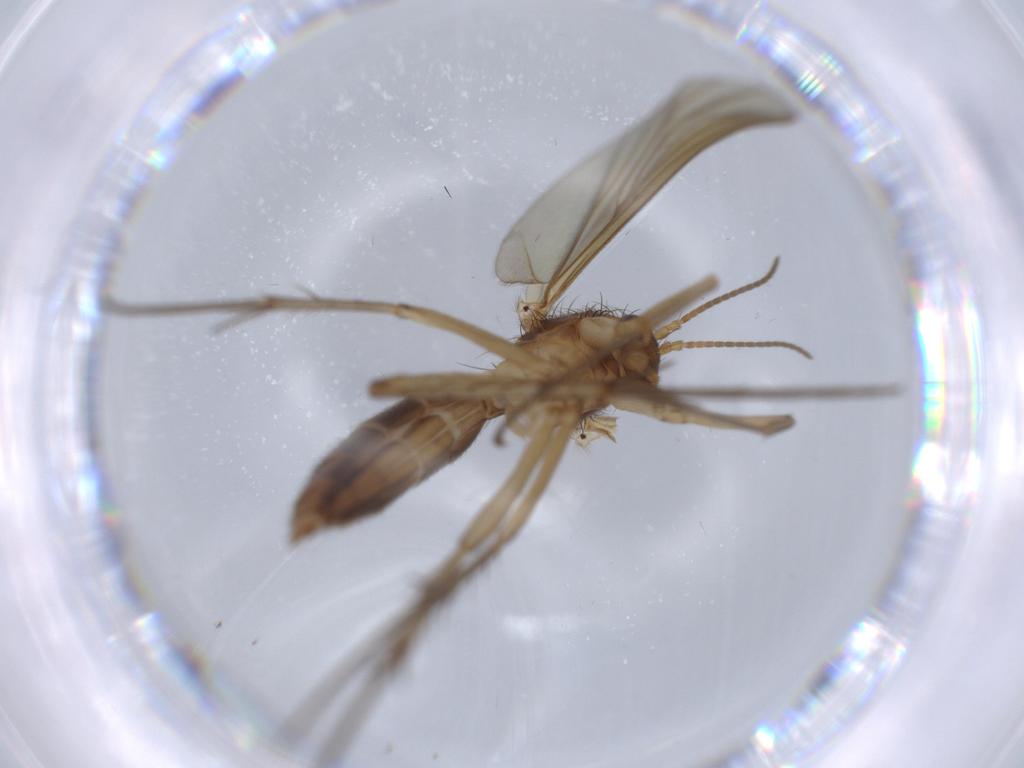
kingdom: Animalia
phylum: Arthropoda
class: Insecta
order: Diptera
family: Mycetophilidae
